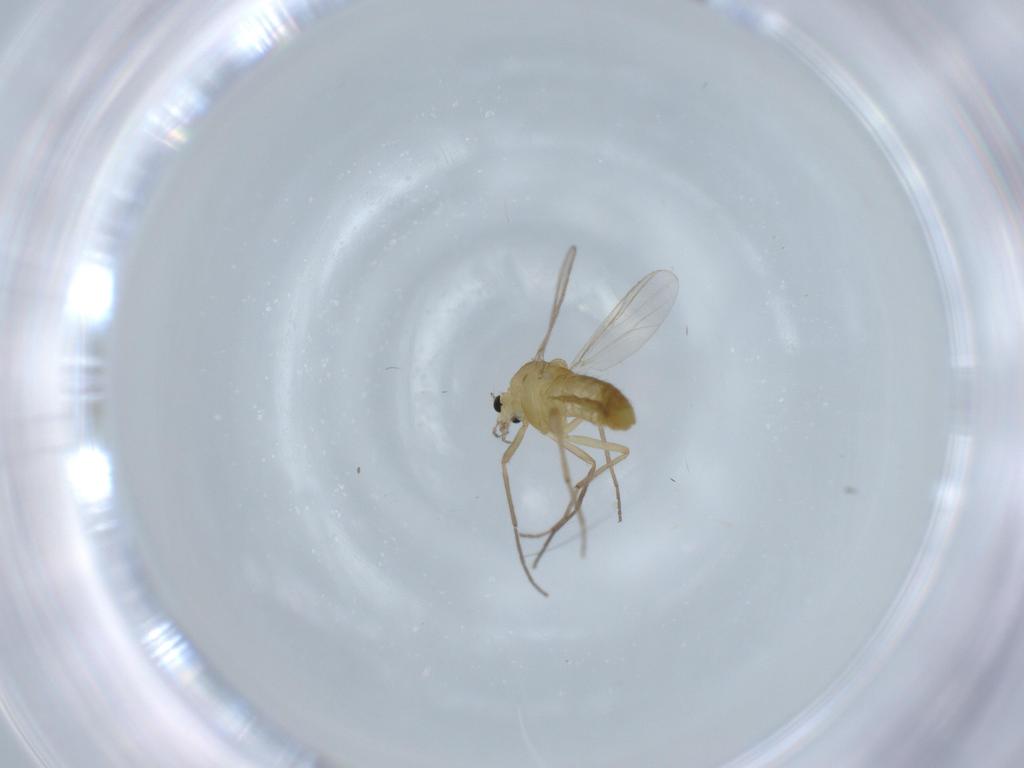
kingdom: Animalia
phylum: Arthropoda
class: Insecta
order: Diptera
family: Chironomidae
